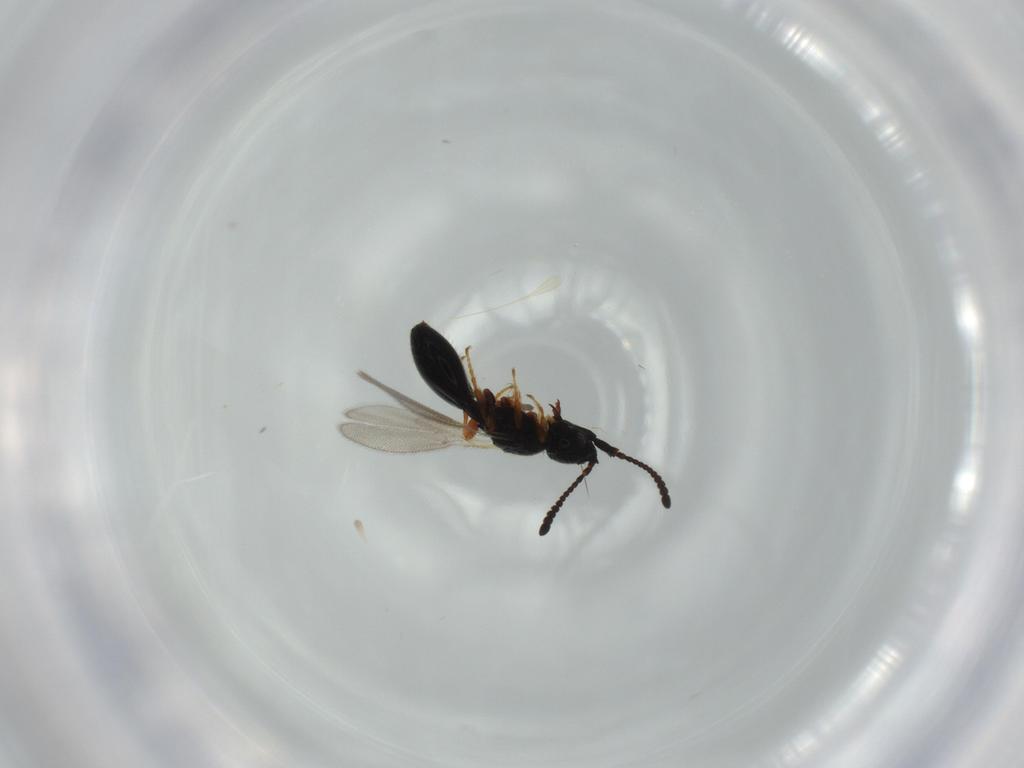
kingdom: Animalia
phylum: Arthropoda
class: Insecta
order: Hymenoptera
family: Diapriidae
